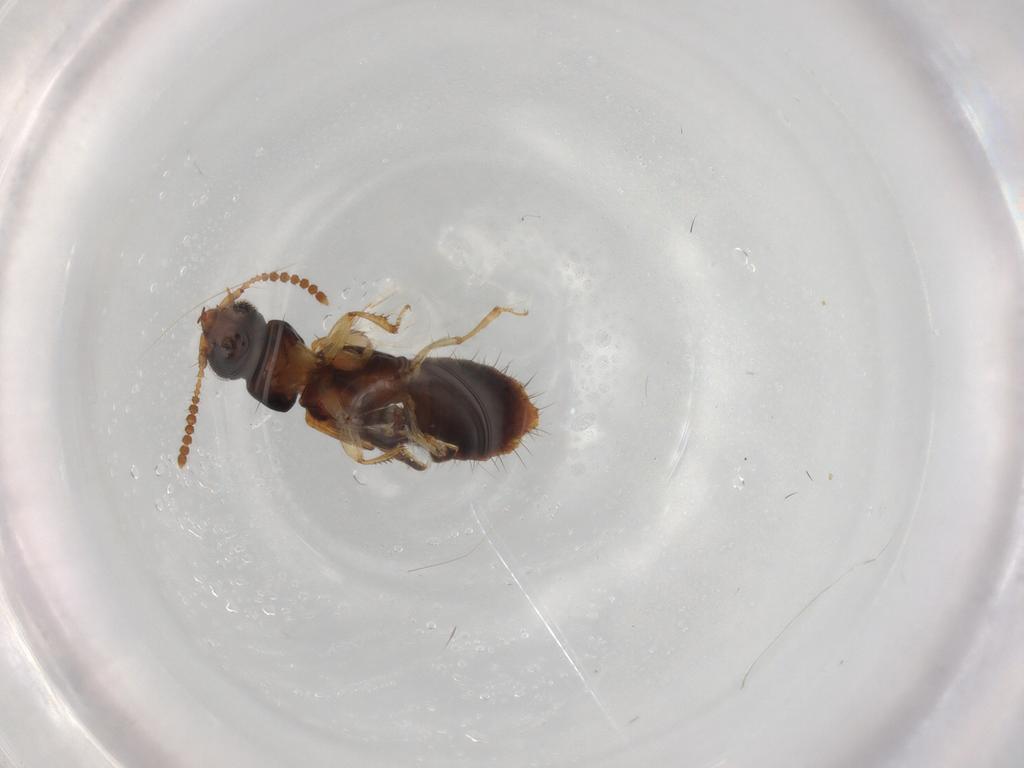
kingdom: Animalia
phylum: Arthropoda
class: Insecta
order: Coleoptera
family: Staphylinidae
